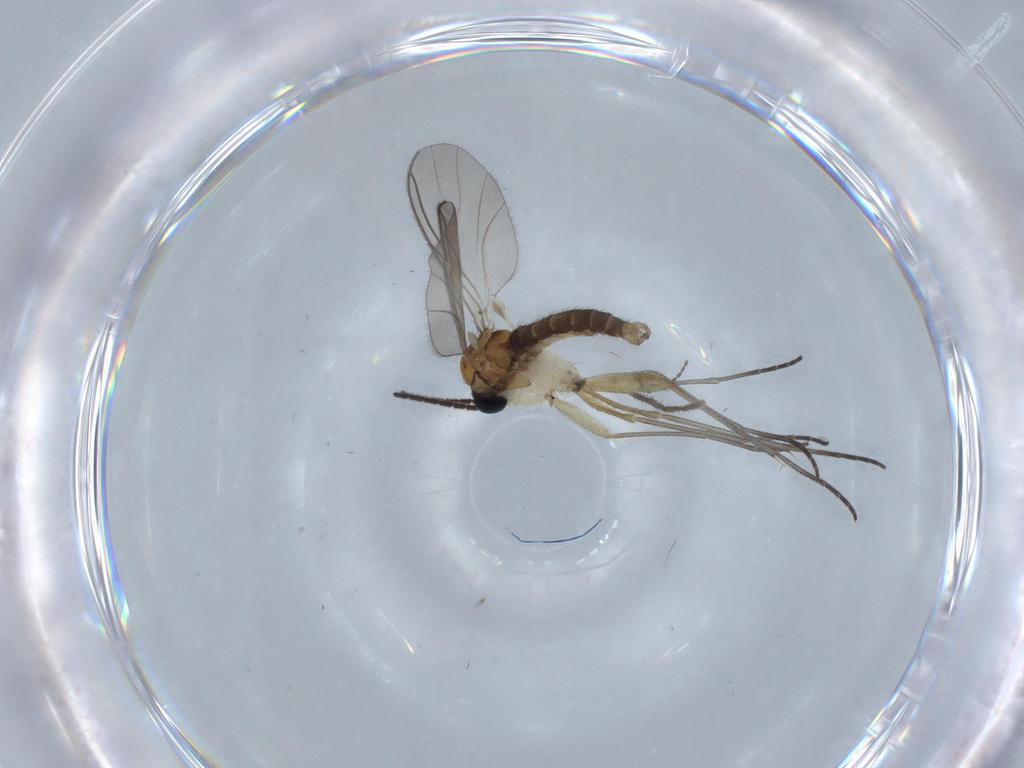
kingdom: Animalia
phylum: Arthropoda
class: Insecta
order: Diptera
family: Sciaridae
